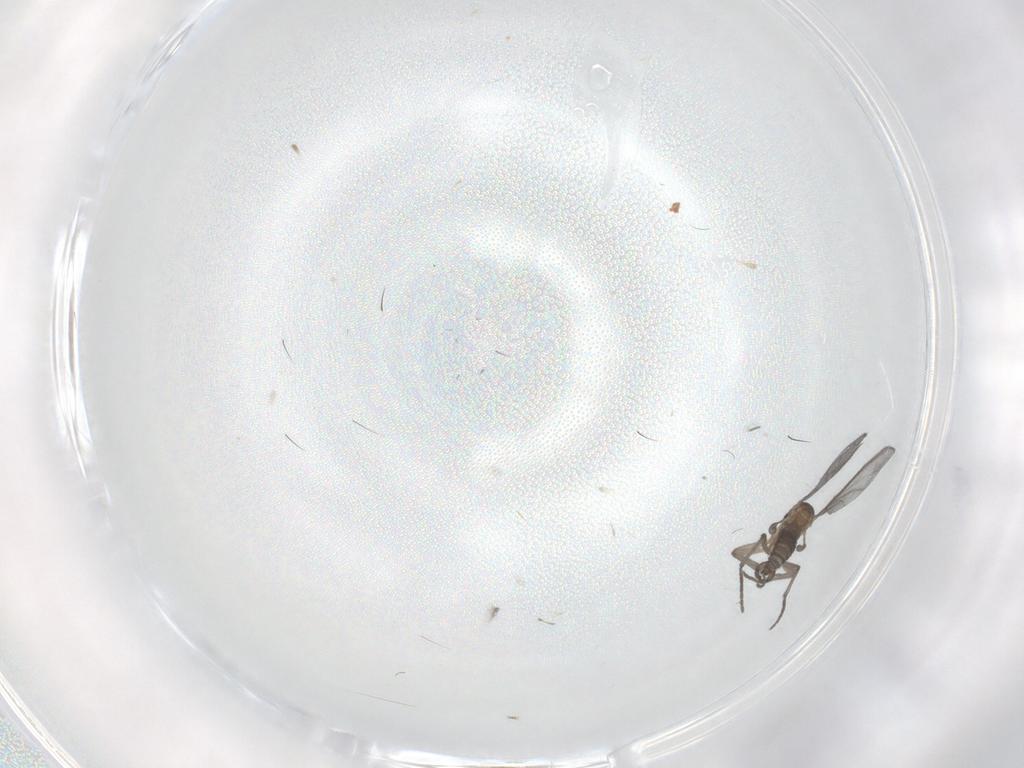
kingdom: Animalia
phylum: Arthropoda
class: Insecta
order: Diptera
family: Sciaridae
